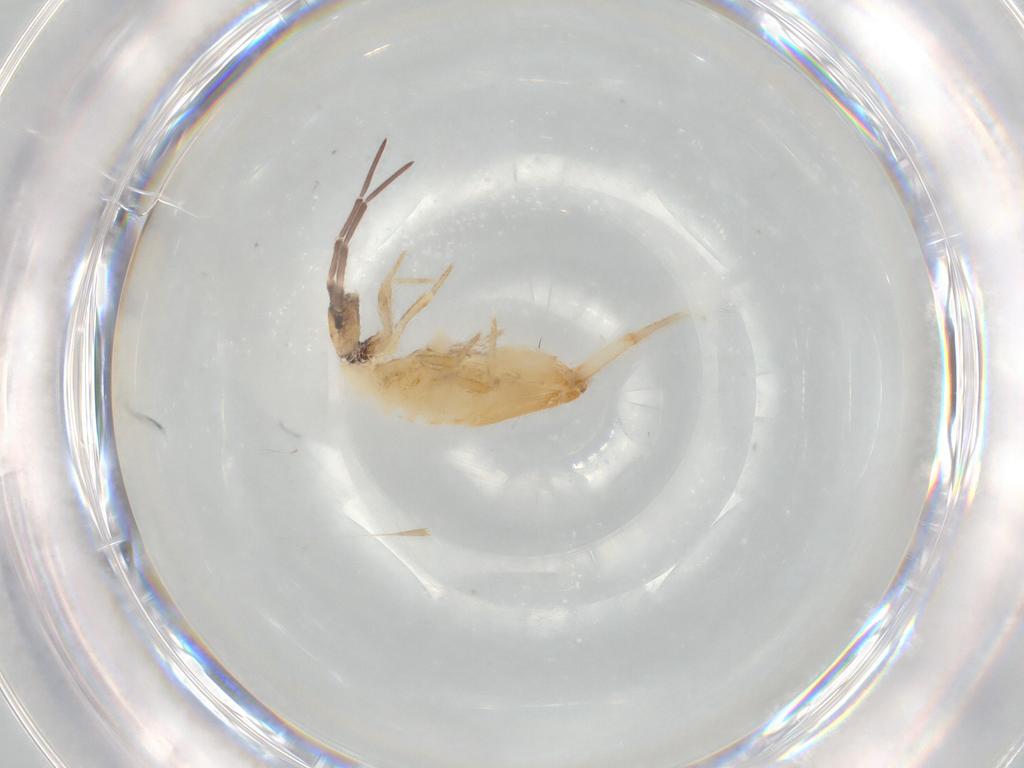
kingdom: Animalia
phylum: Arthropoda
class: Collembola
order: Entomobryomorpha
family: Entomobryidae
